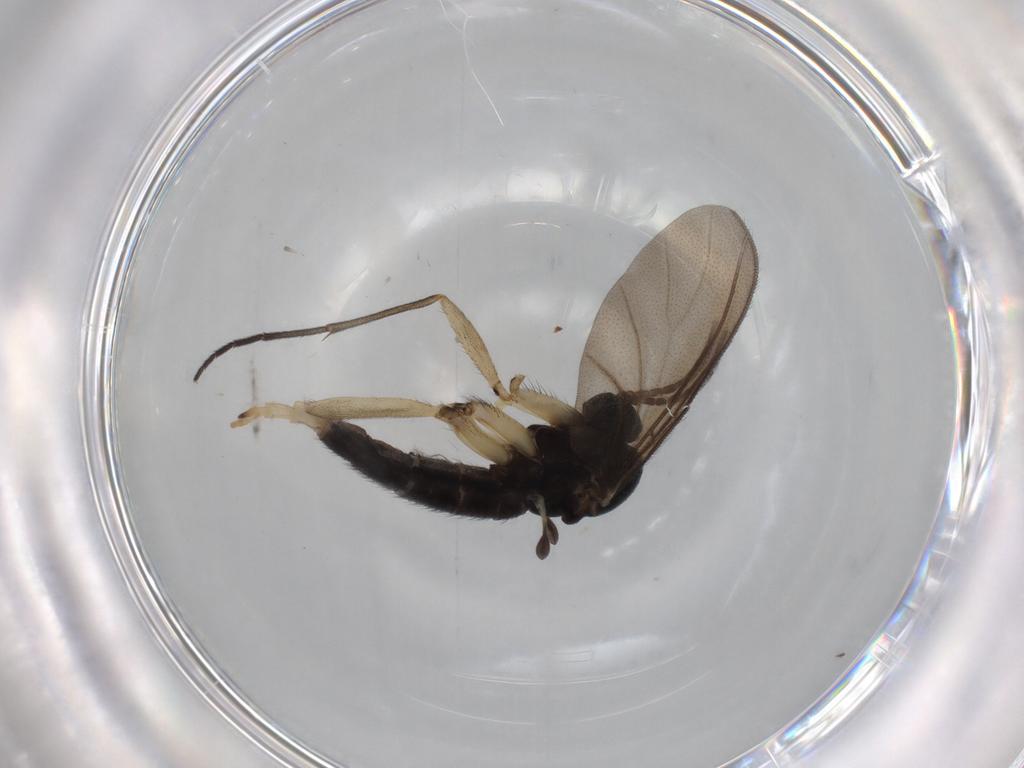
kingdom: Animalia
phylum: Arthropoda
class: Insecta
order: Diptera
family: Sciaridae
